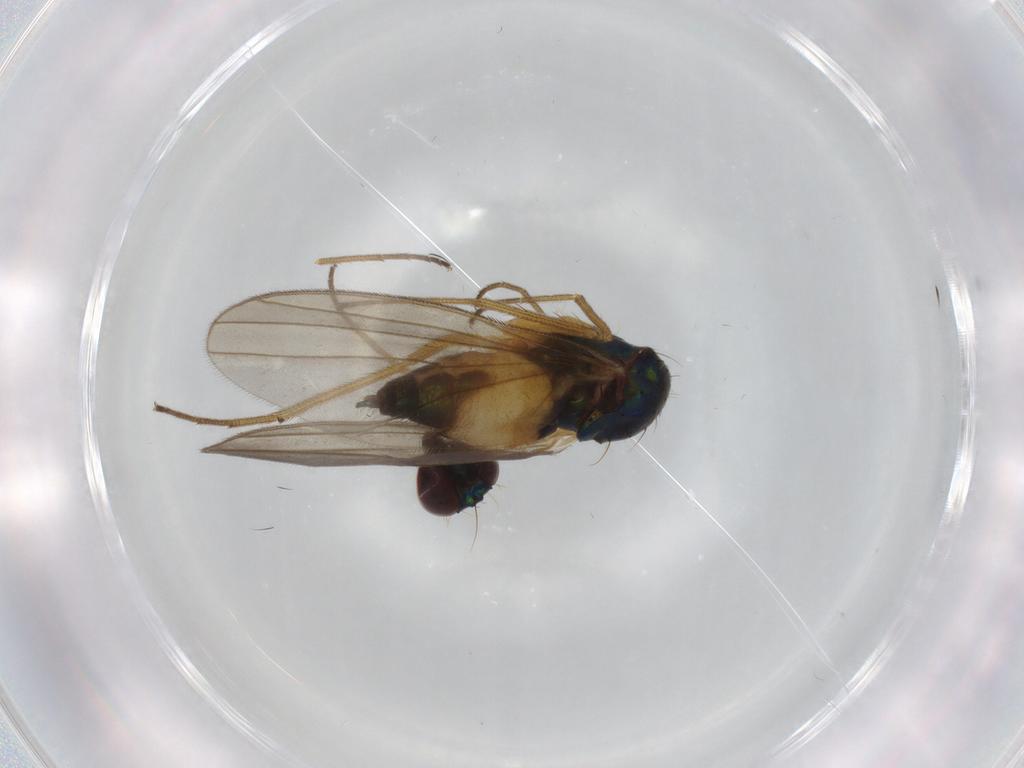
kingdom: Animalia
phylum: Arthropoda
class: Insecta
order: Diptera
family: Dolichopodidae
